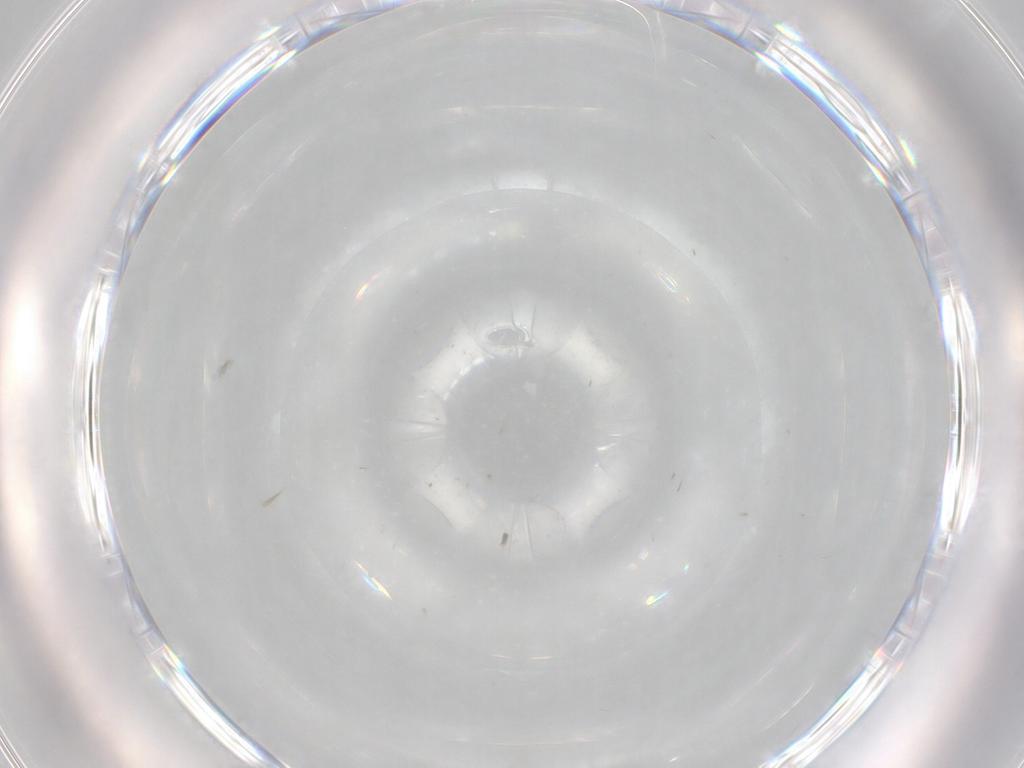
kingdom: Animalia
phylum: Arthropoda
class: Insecta
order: Diptera
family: Chironomidae
